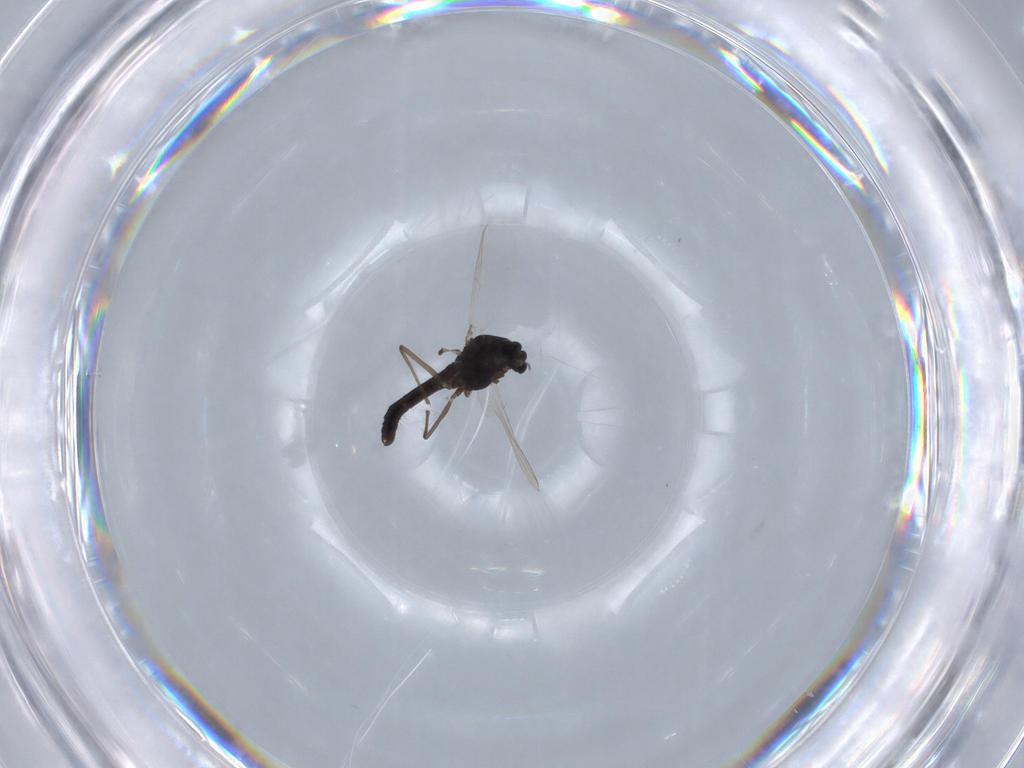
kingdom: Animalia
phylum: Arthropoda
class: Insecta
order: Diptera
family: Chironomidae
